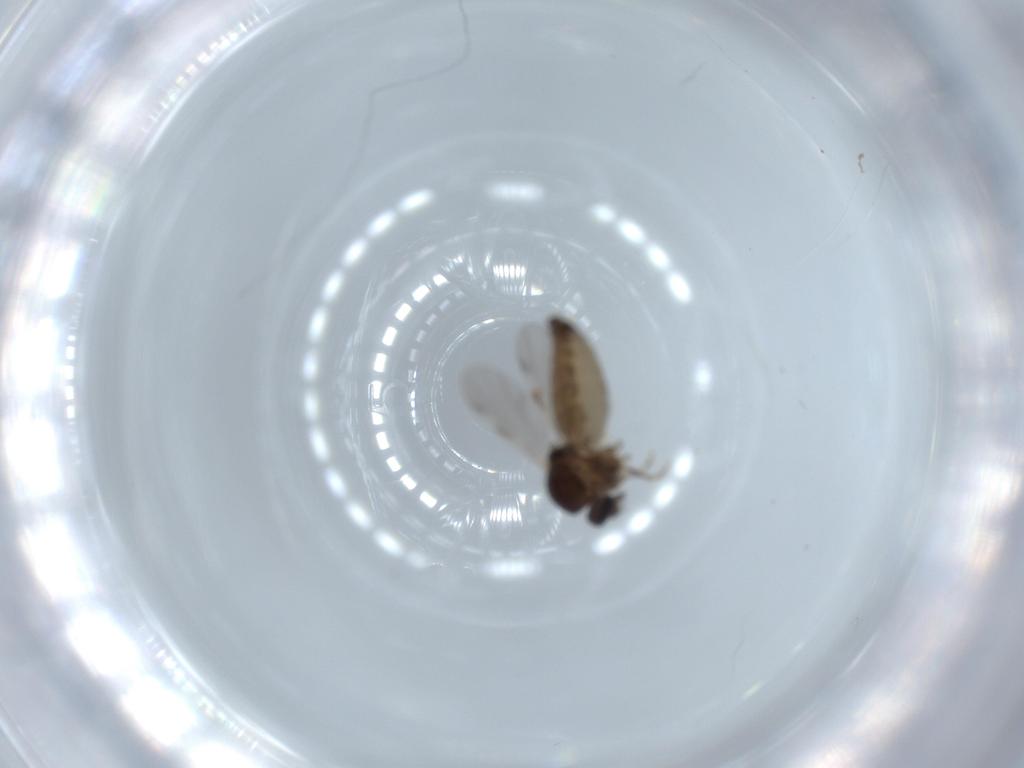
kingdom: Animalia
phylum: Arthropoda
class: Insecta
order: Diptera
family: Ceratopogonidae
